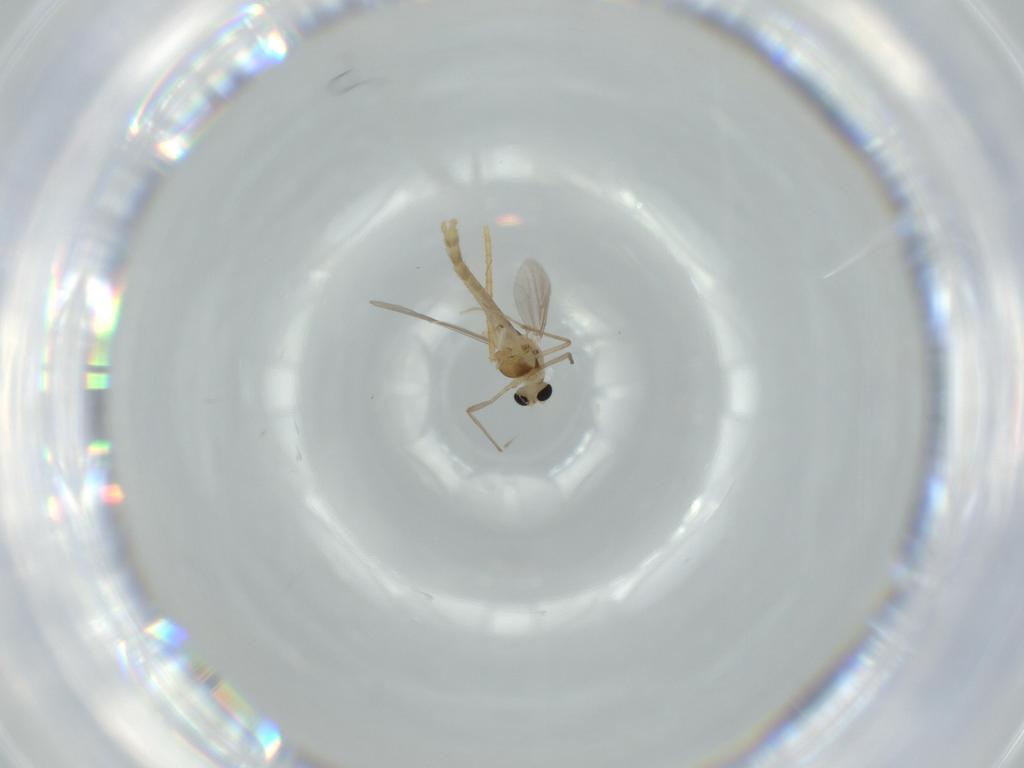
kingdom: Animalia
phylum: Arthropoda
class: Insecta
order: Diptera
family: Chironomidae
